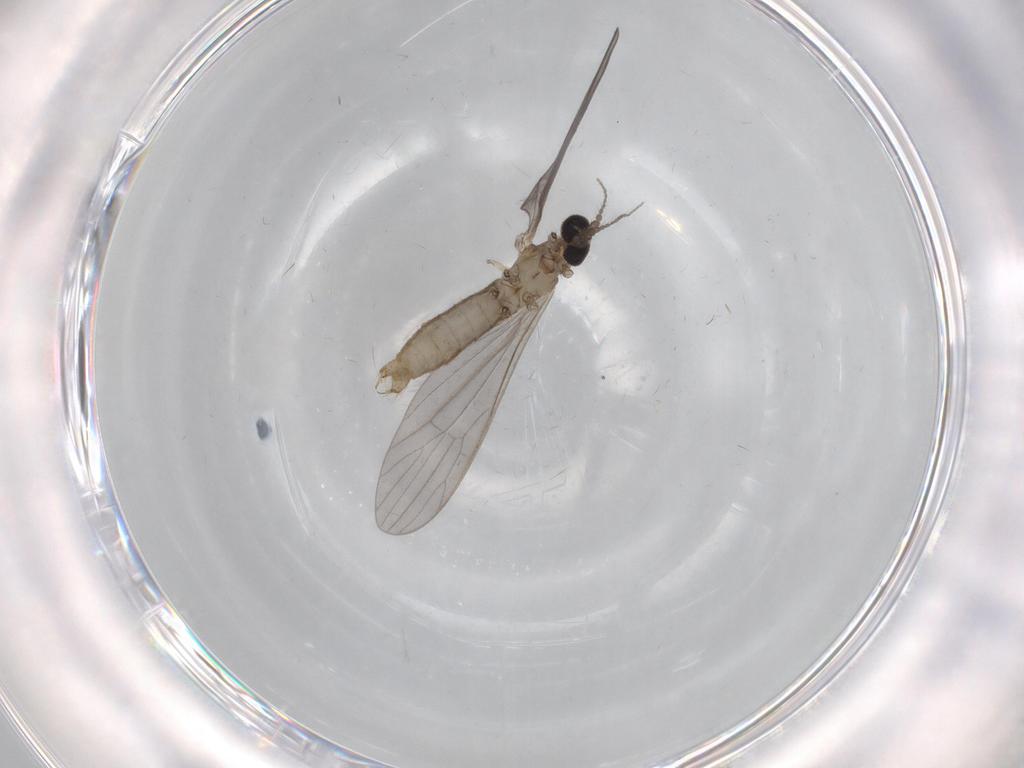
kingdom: Animalia
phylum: Arthropoda
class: Insecta
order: Diptera
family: Limoniidae
